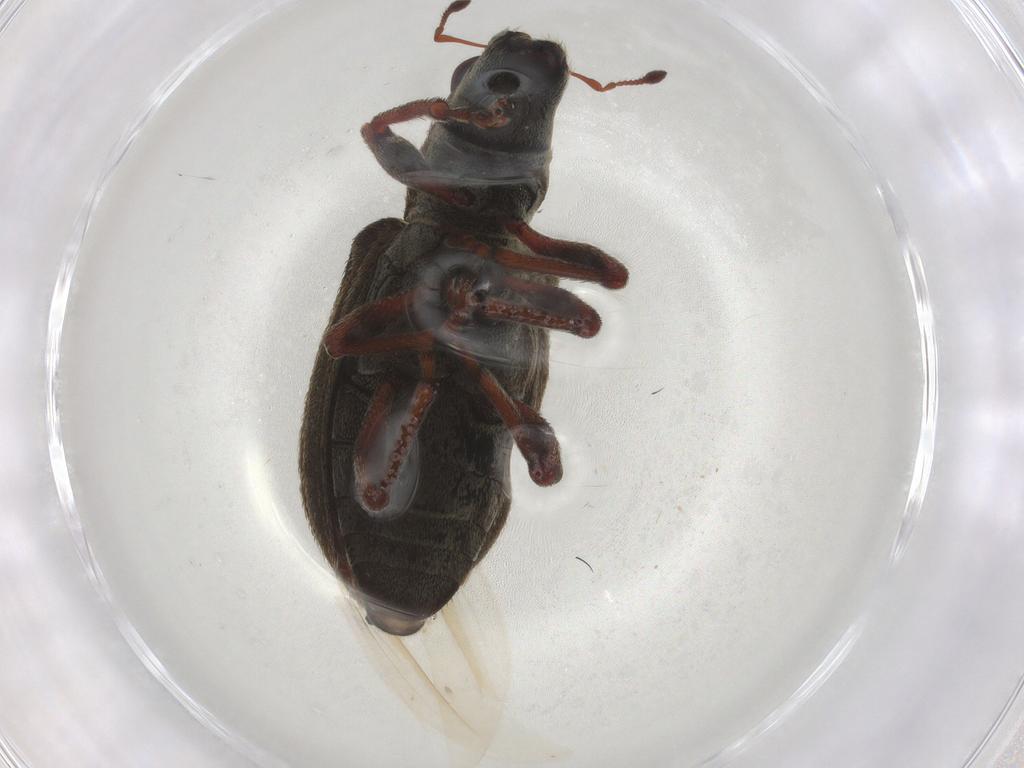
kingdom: Animalia
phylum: Arthropoda
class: Insecta
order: Coleoptera
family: Curculionidae
